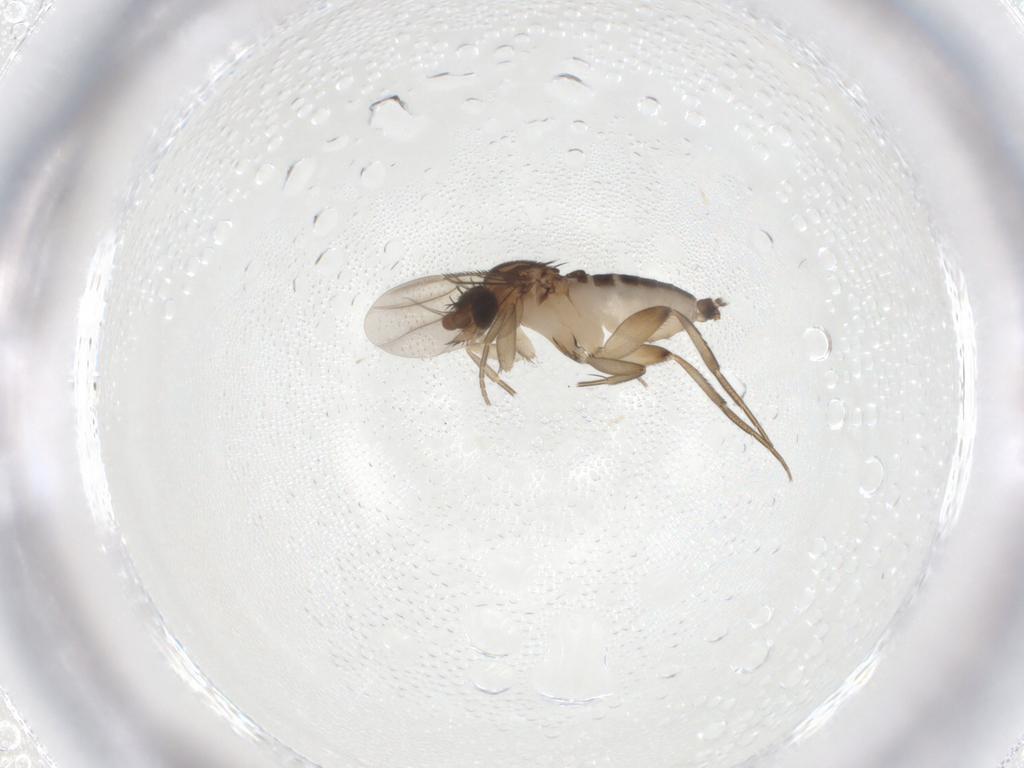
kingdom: Animalia
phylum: Arthropoda
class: Insecta
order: Diptera
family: Phoridae
